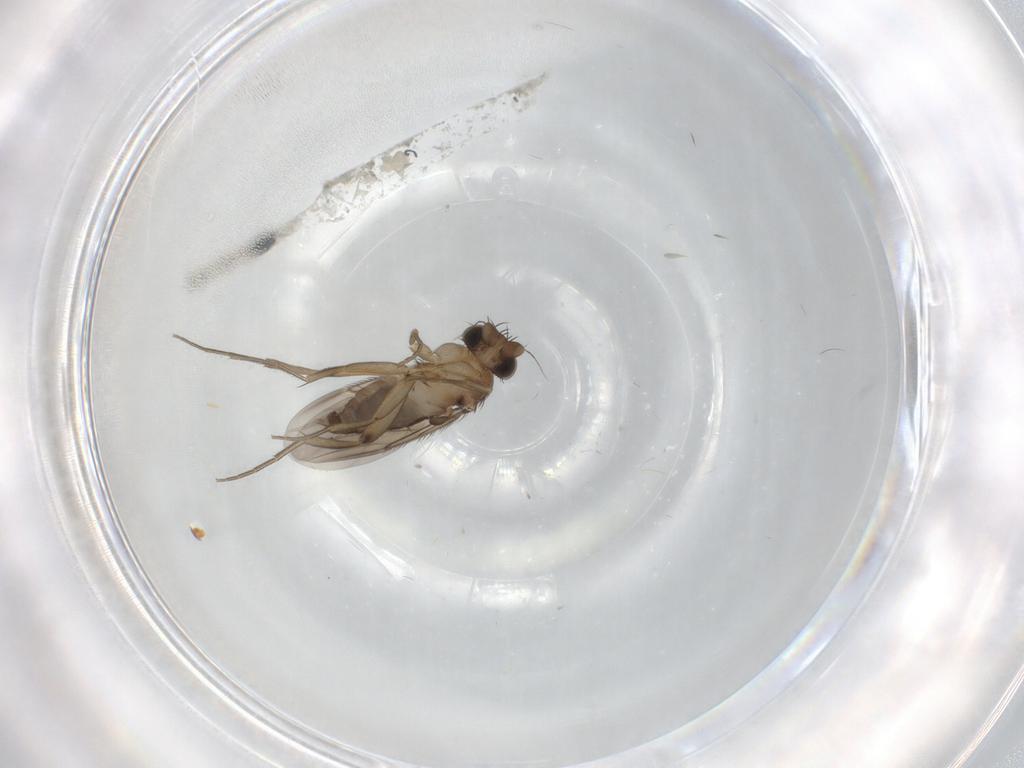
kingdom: Animalia
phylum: Arthropoda
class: Insecta
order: Diptera
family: Phoridae
